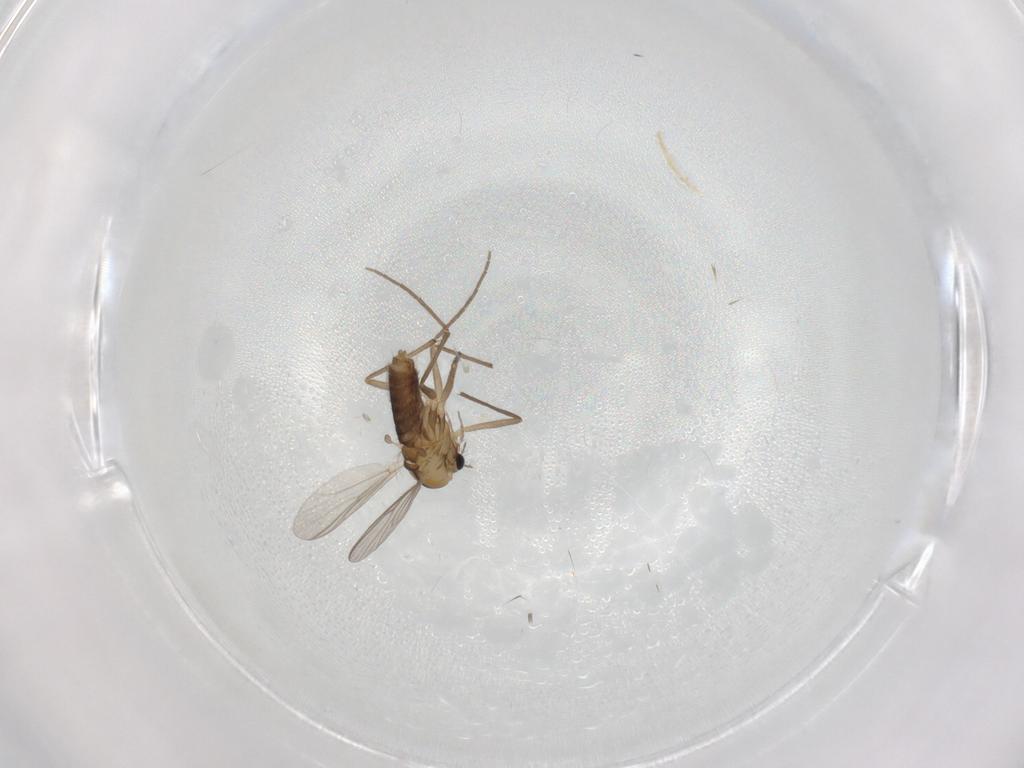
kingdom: Animalia
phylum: Arthropoda
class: Insecta
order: Diptera
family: Chironomidae
